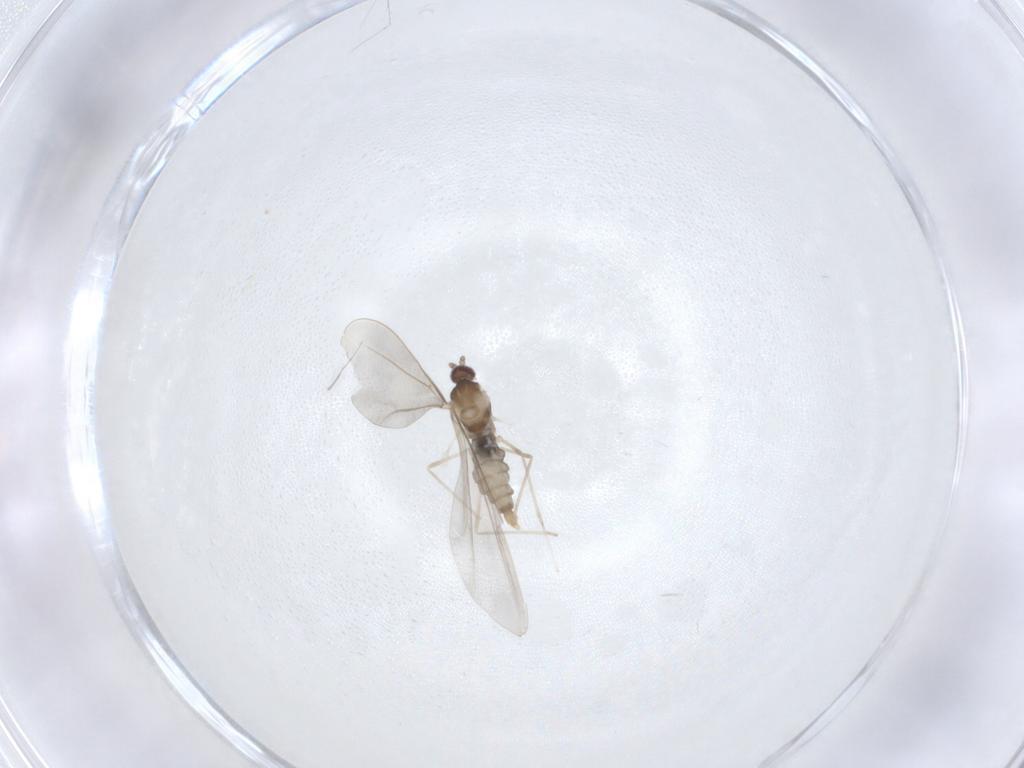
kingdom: Animalia
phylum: Arthropoda
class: Insecta
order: Diptera
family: Cecidomyiidae
